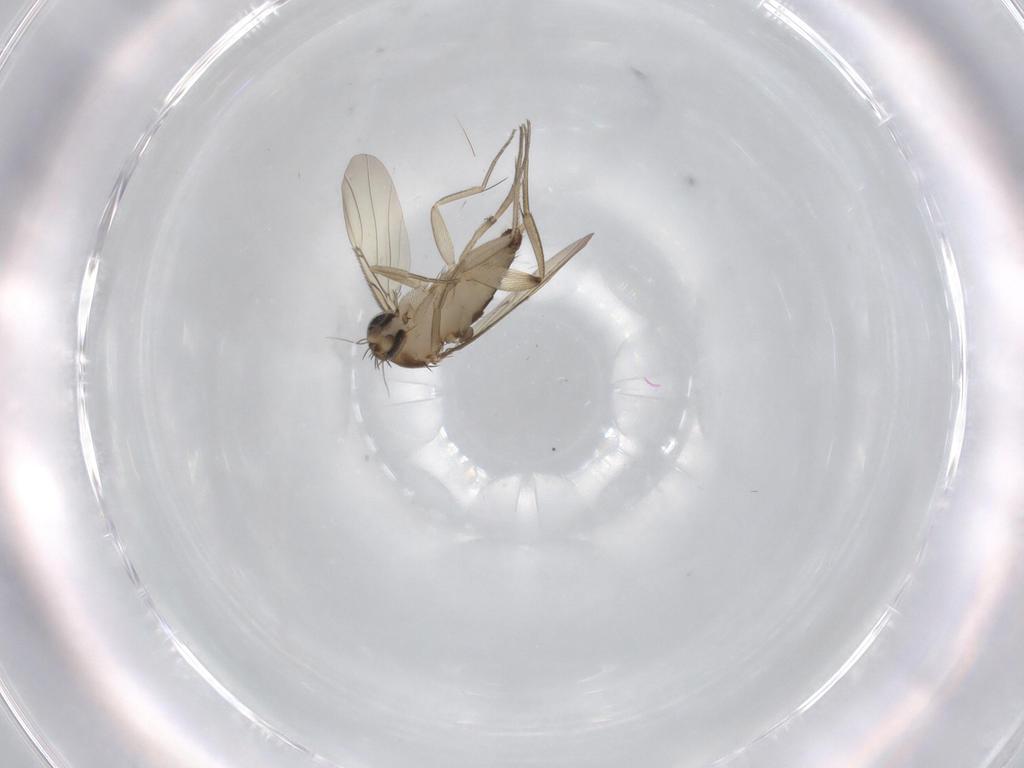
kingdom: Animalia
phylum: Arthropoda
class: Insecta
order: Diptera
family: Phoridae
